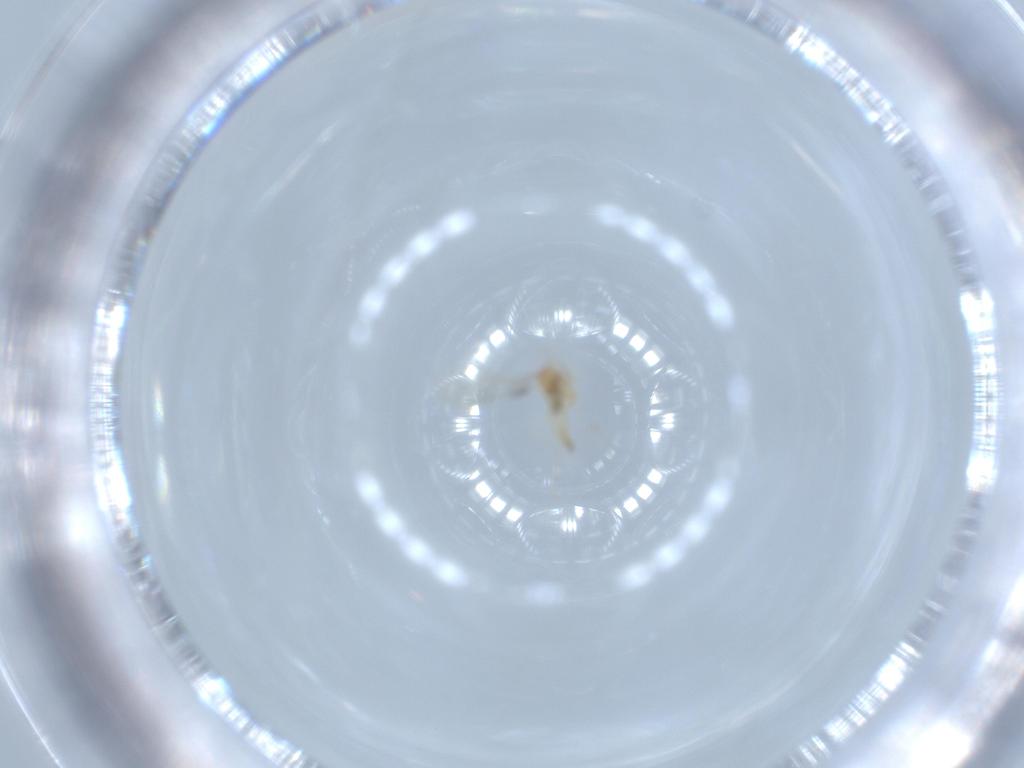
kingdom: Animalia
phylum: Arthropoda
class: Insecta
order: Diptera
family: Cecidomyiidae
